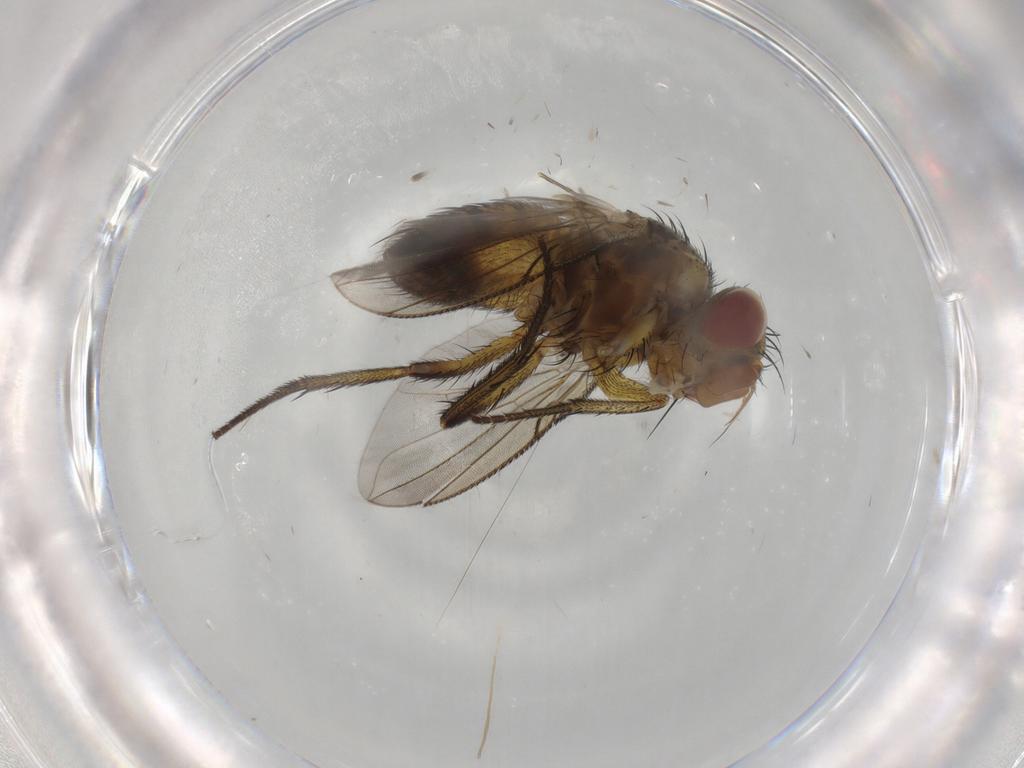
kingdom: Animalia
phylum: Arthropoda
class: Insecta
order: Diptera
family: Tachinidae
